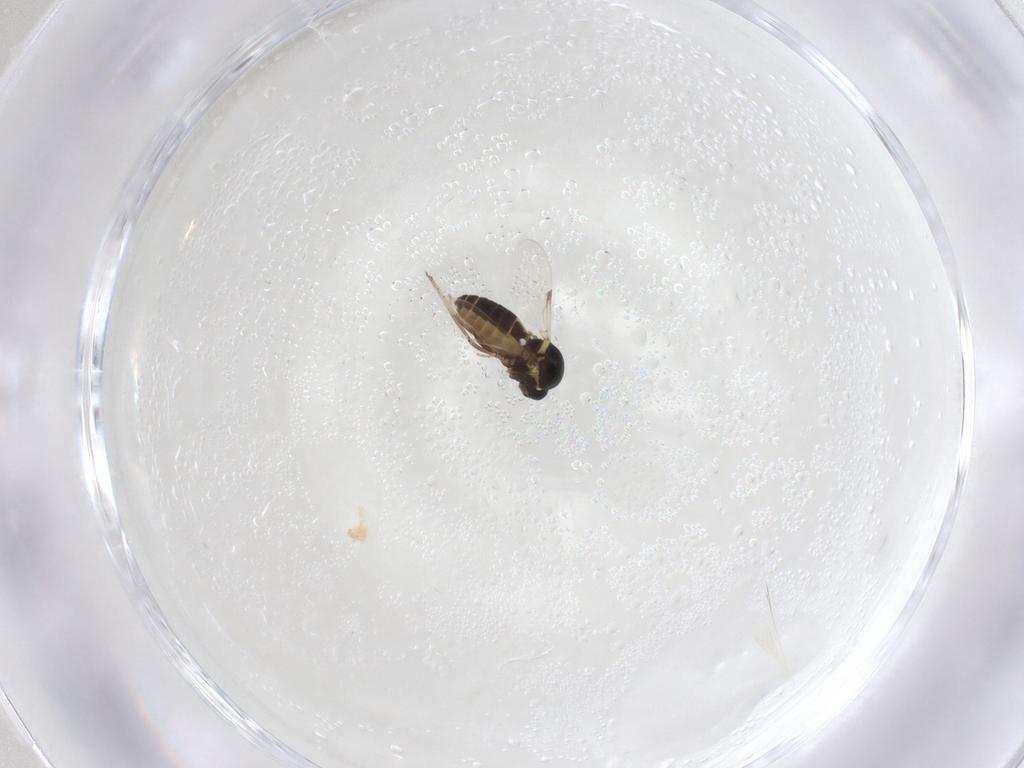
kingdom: Animalia
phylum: Arthropoda
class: Insecta
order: Diptera
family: Ceratopogonidae
